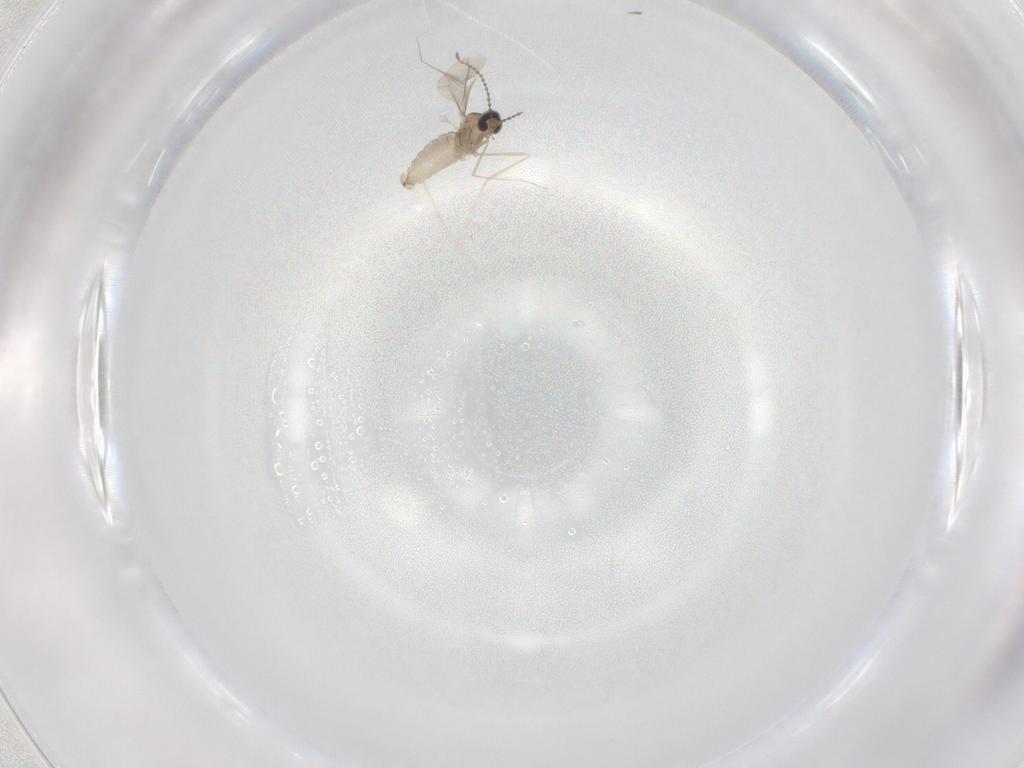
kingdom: Animalia
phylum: Arthropoda
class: Insecta
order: Diptera
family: Cecidomyiidae
